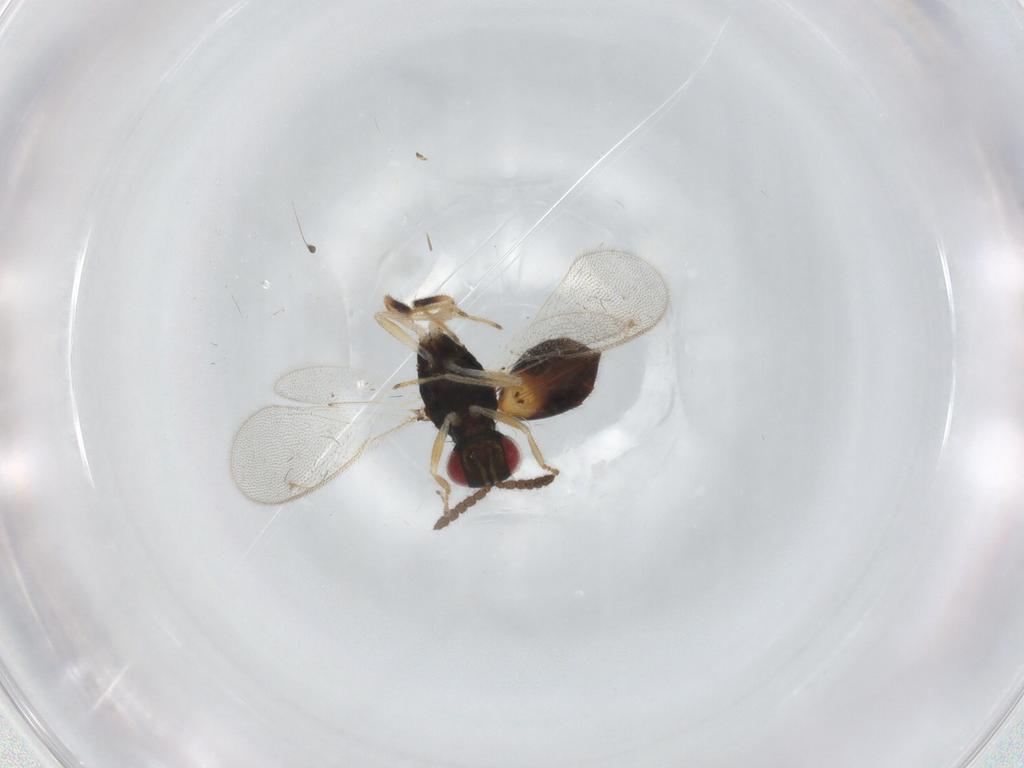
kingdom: Animalia
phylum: Arthropoda
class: Insecta
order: Hymenoptera
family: Eulophidae
